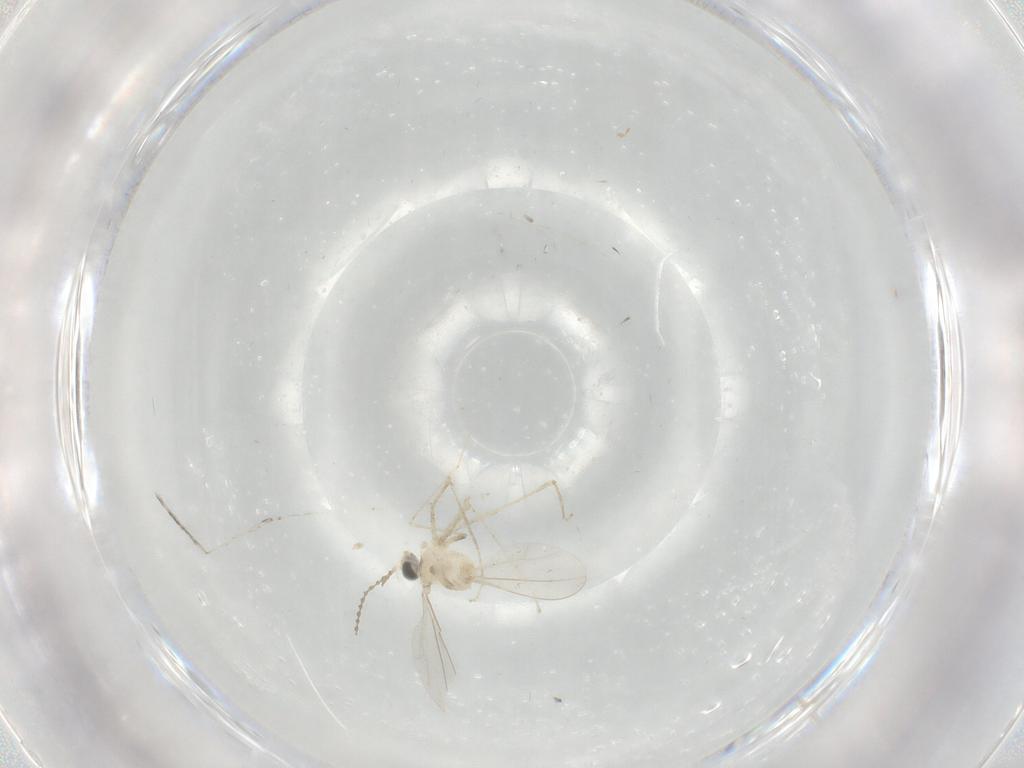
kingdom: Animalia
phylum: Arthropoda
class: Insecta
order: Diptera
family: Cecidomyiidae
